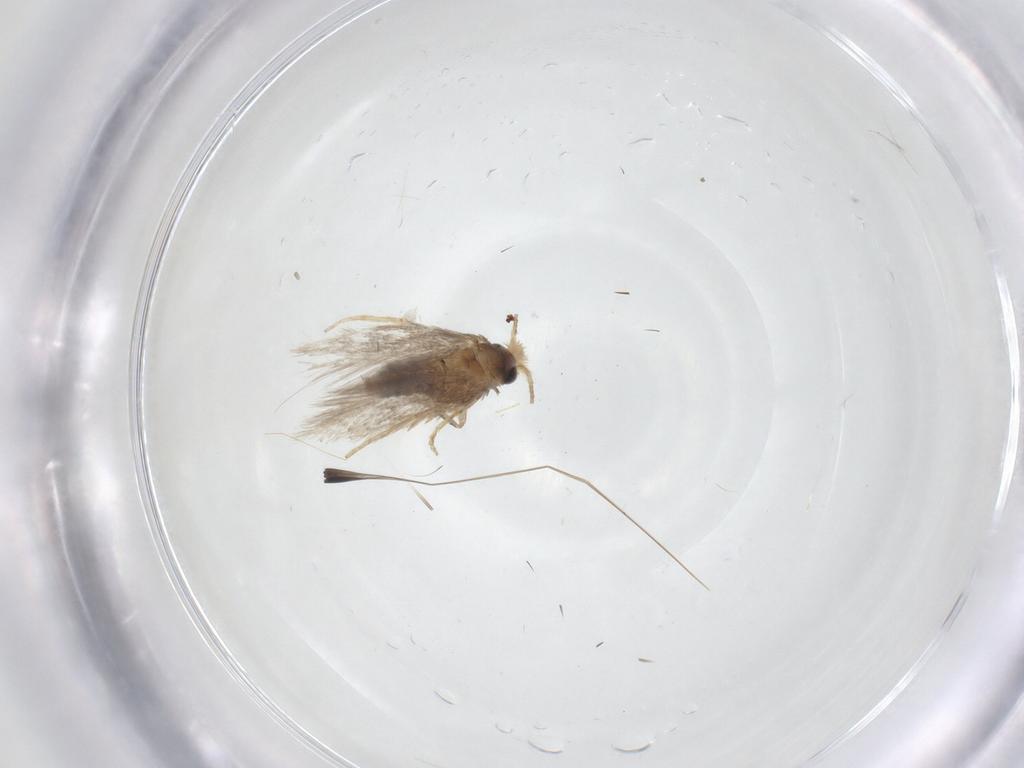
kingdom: Animalia
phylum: Arthropoda
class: Insecta
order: Lepidoptera
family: Nepticulidae
